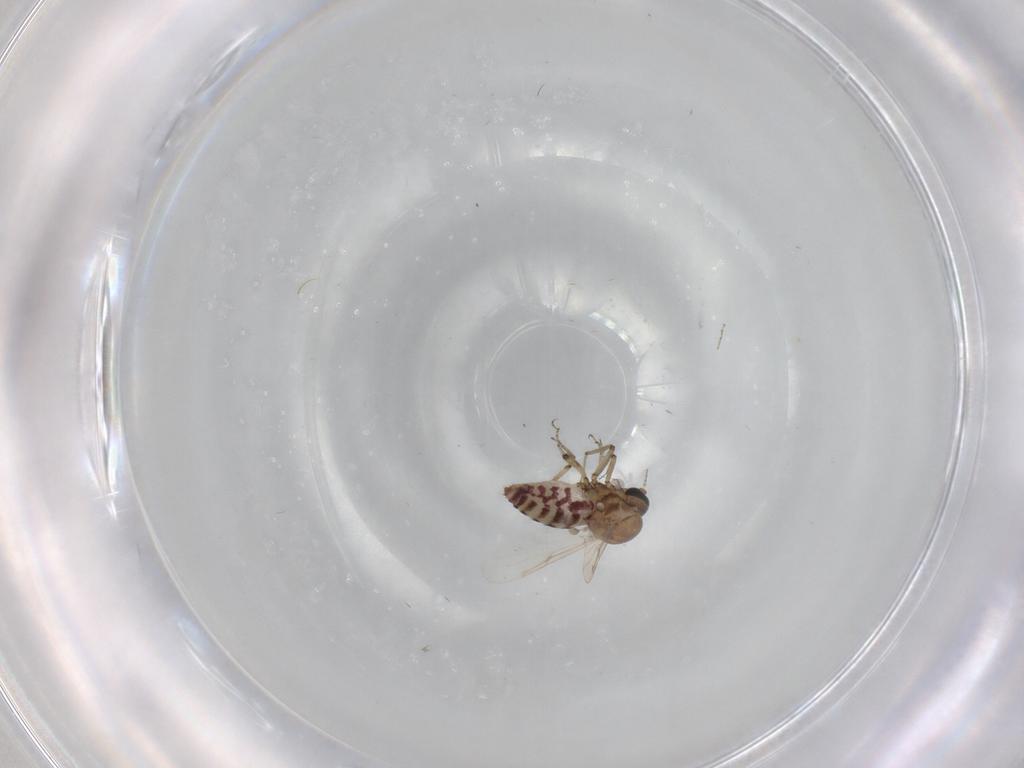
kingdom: Animalia
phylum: Arthropoda
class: Insecta
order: Diptera
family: Ceratopogonidae
